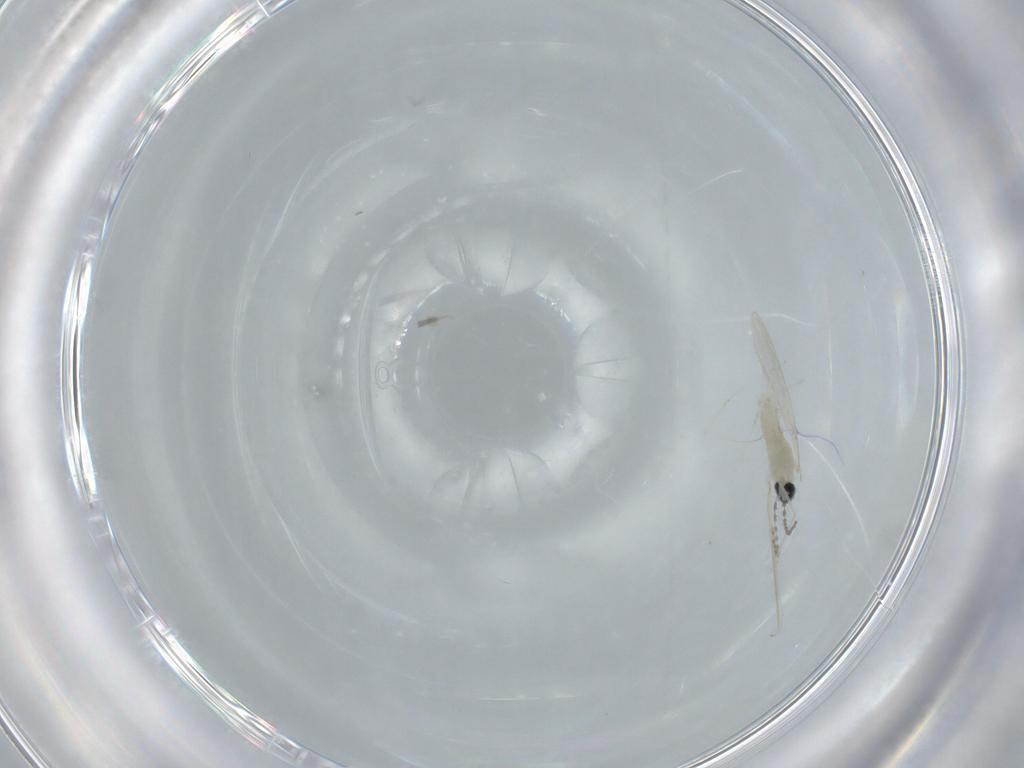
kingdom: Animalia
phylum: Arthropoda
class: Insecta
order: Diptera
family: Cecidomyiidae
